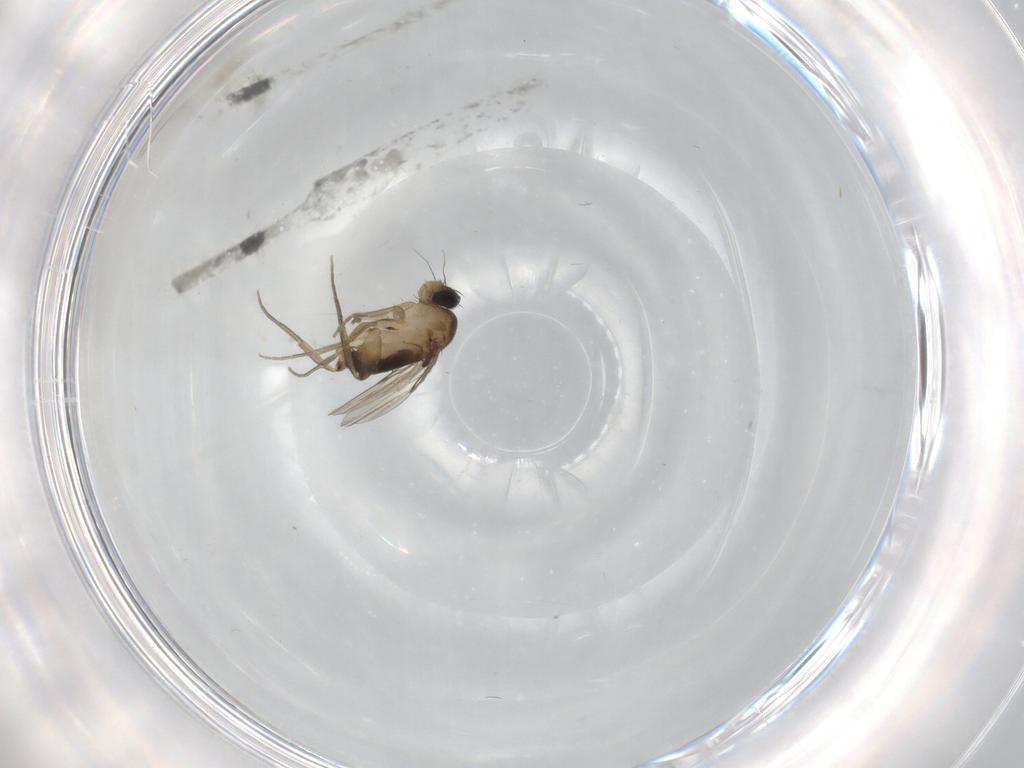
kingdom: Animalia
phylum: Arthropoda
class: Insecta
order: Diptera
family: Phoridae
